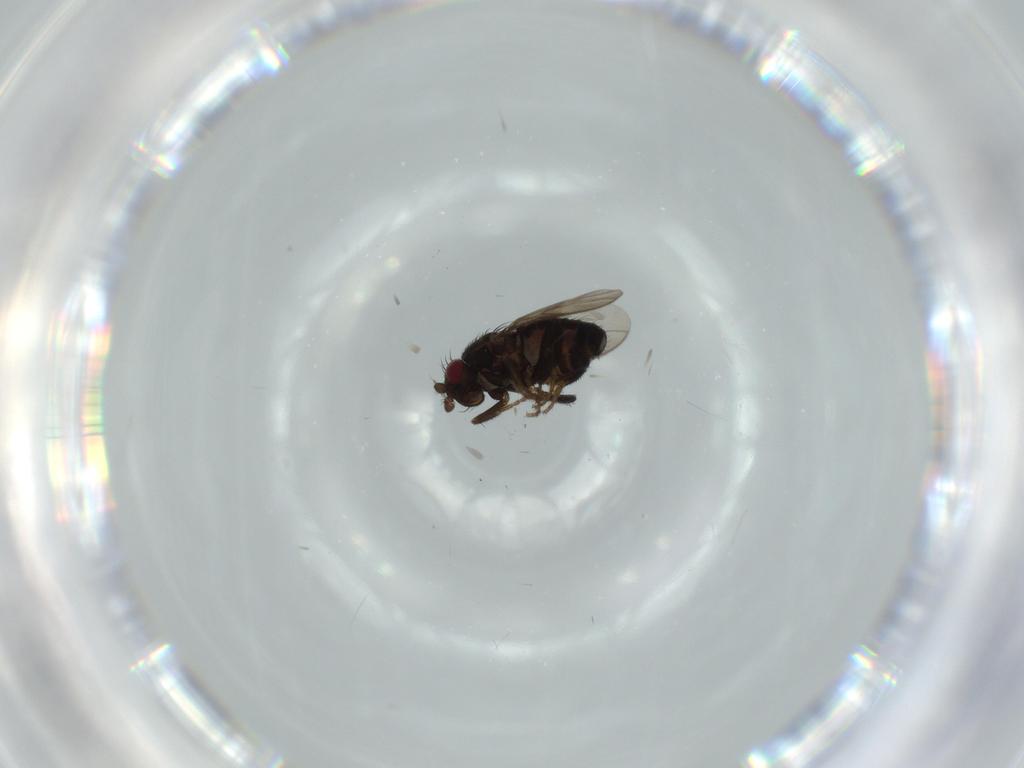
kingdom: Animalia
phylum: Arthropoda
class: Insecta
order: Diptera
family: Sphaeroceridae
